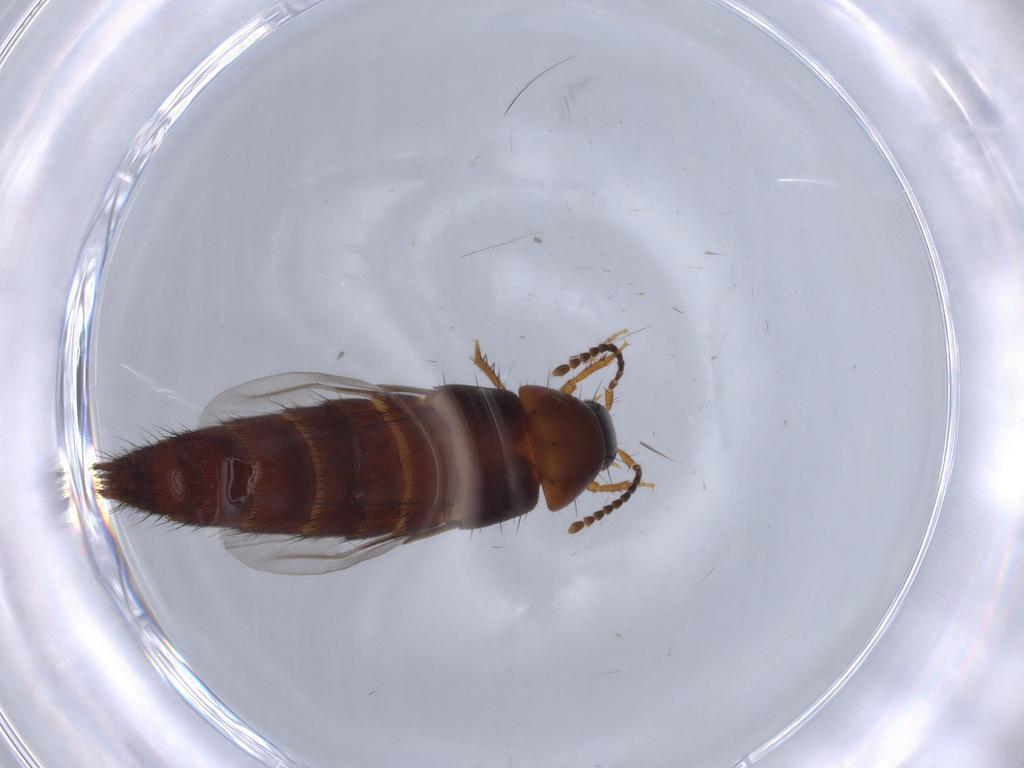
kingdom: Animalia
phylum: Arthropoda
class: Insecta
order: Coleoptera
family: Staphylinidae
